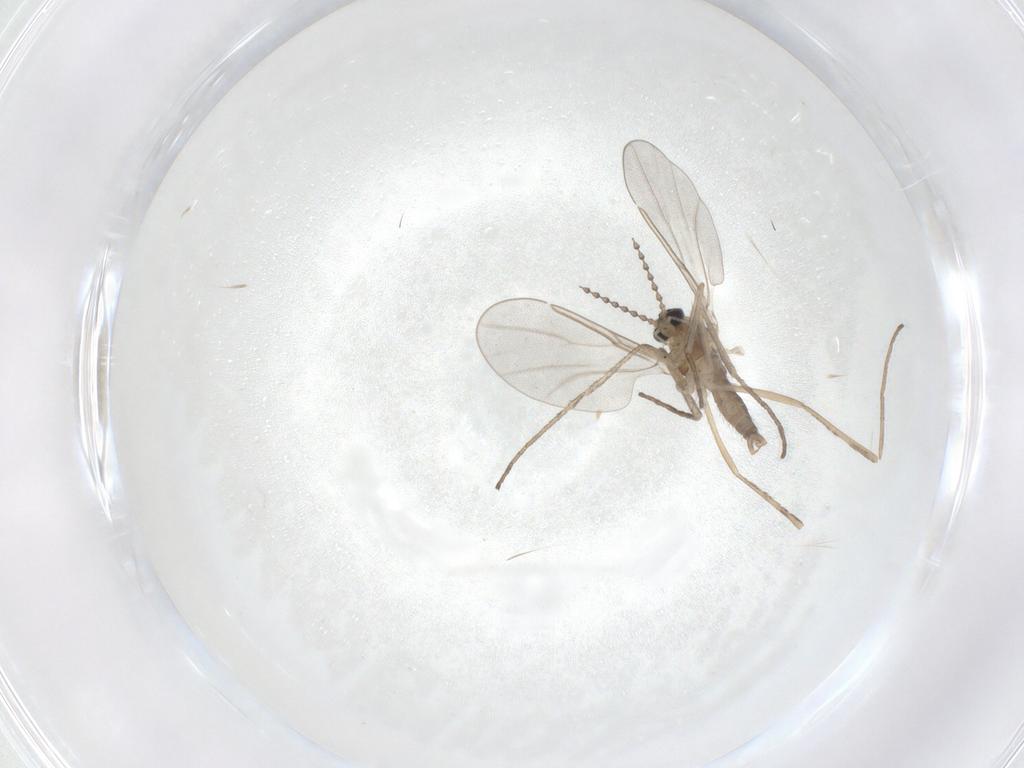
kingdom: Animalia
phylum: Arthropoda
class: Insecta
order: Diptera
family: Cecidomyiidae
